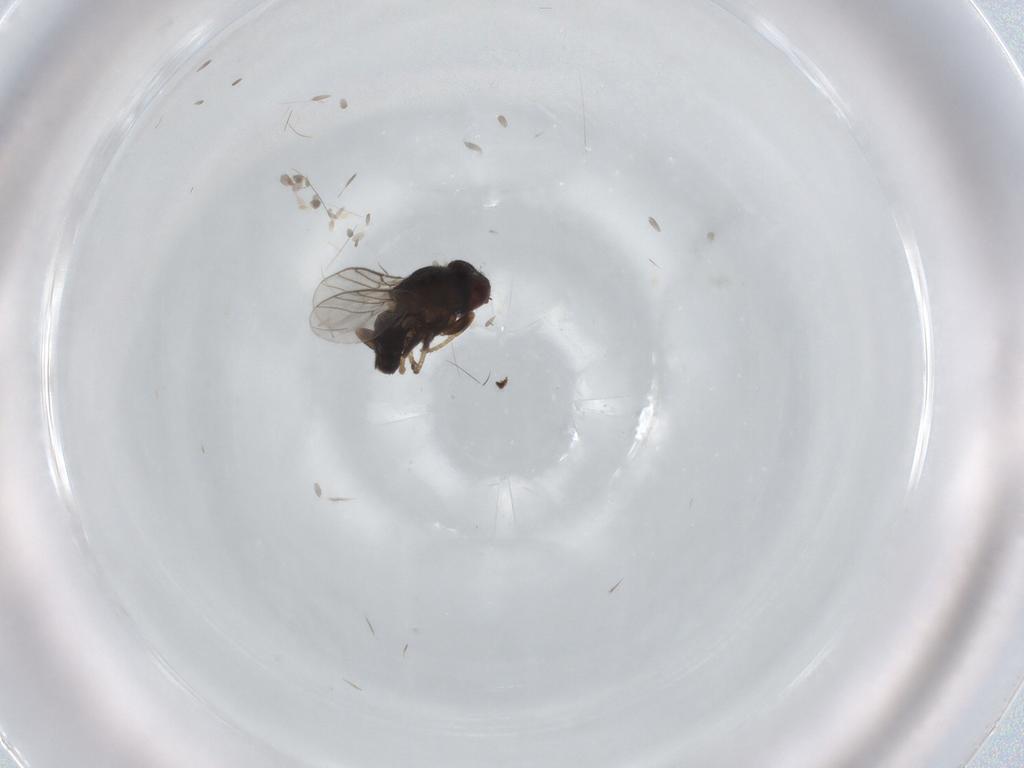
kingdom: Animalia
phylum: Arthropoda
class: Insecta
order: Diptera
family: Chloropidae
